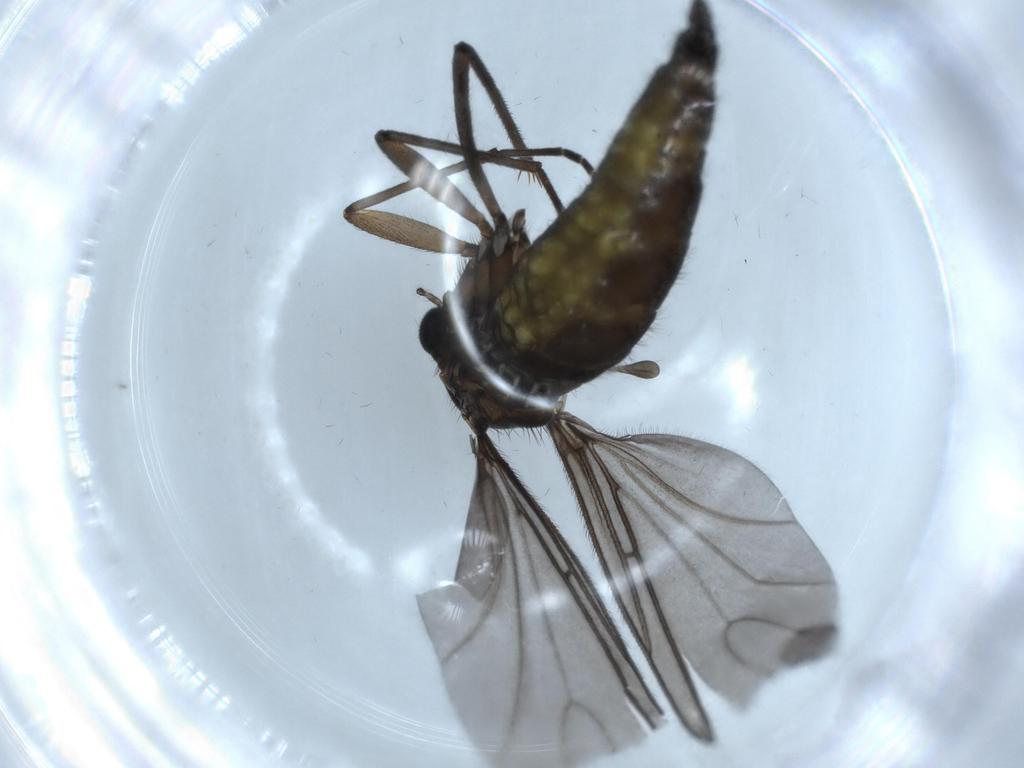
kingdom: Animalia
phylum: Arthropoda
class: Insecta
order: Diptera
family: Sciaridae
